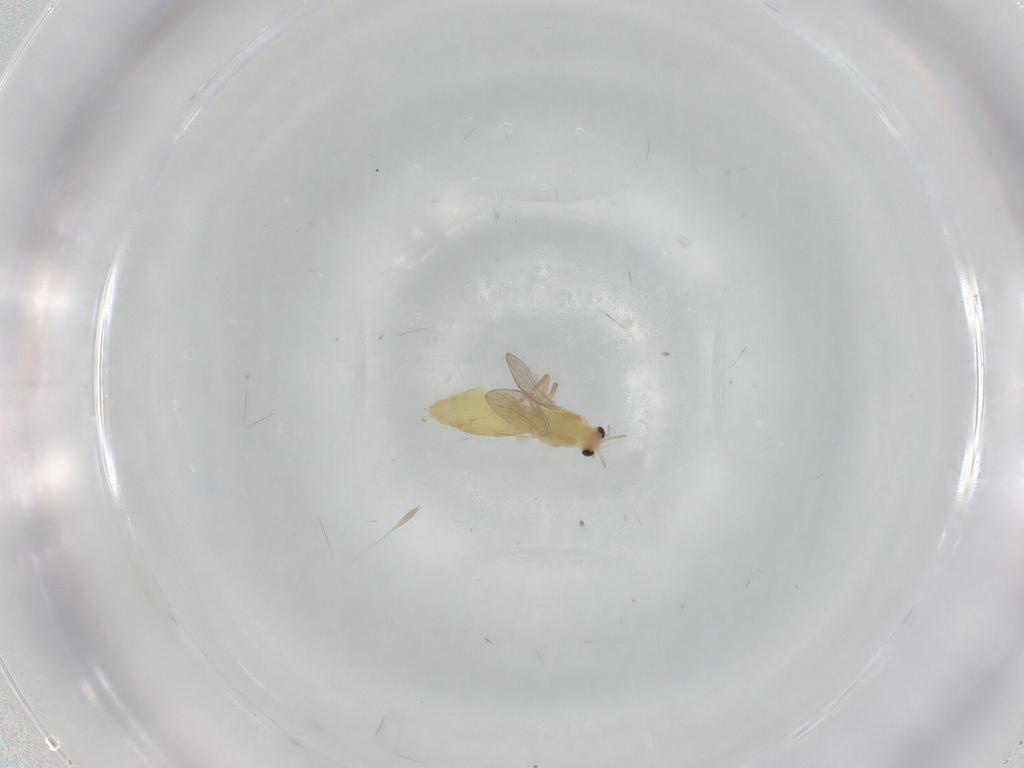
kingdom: Animalia
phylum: Arthropoda
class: Insecta
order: Diptera
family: Chironomidae
